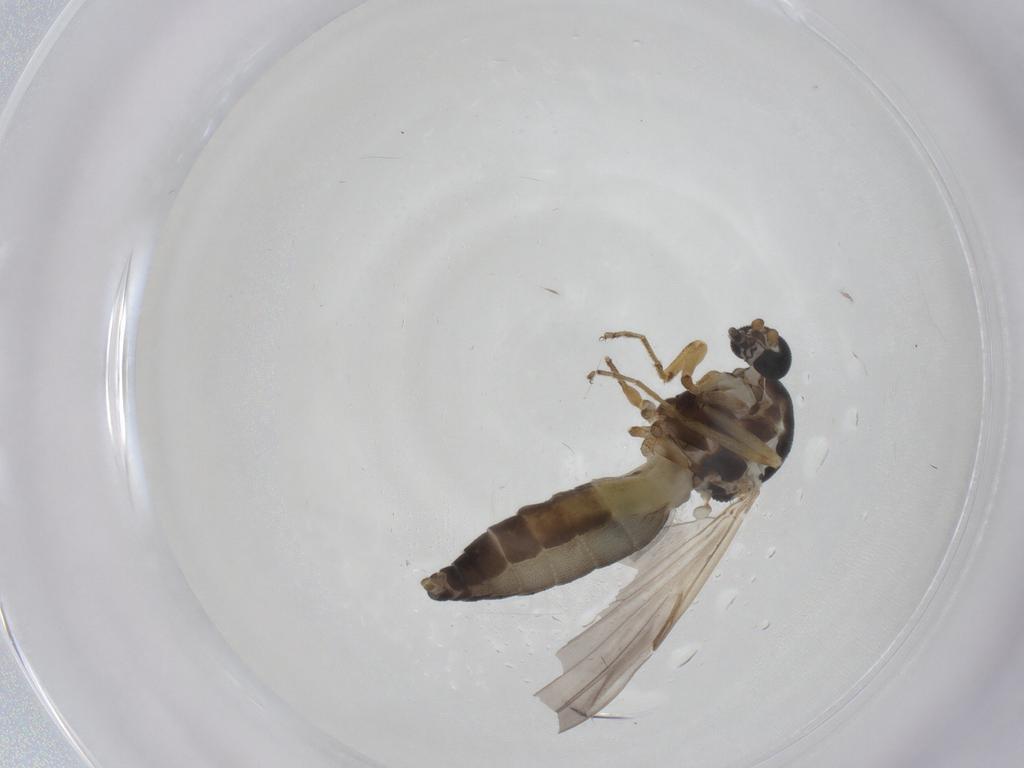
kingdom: Animalia
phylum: Arthropoda
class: Insecta
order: Diptera
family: Ceratopogonidae
